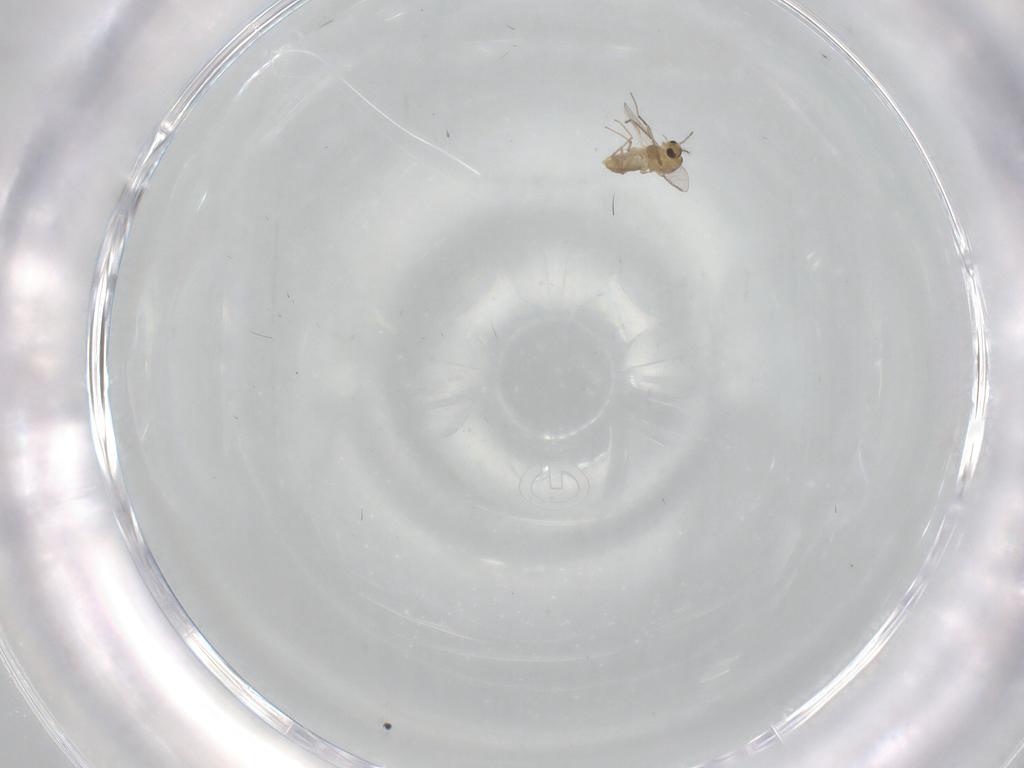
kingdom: Animalia
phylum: Arthropoda
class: Insecta
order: Diptera
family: Chironomidae
